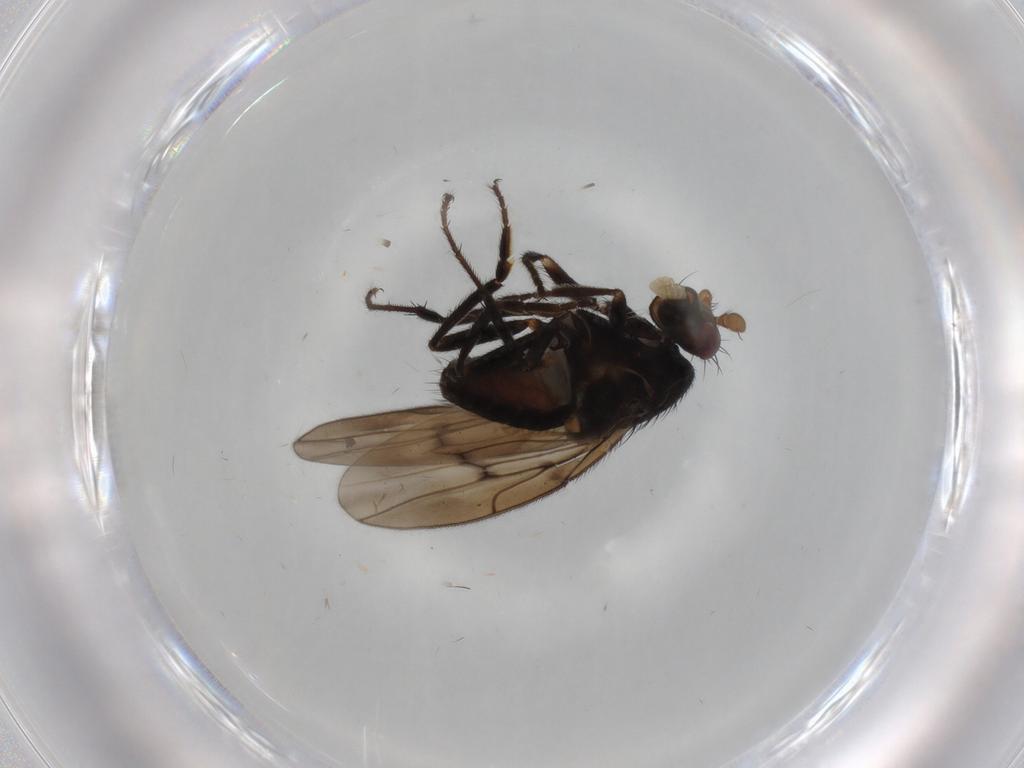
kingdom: Animalia
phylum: Arthropoda
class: Insecta
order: Diptera
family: Sphaeroceridae
